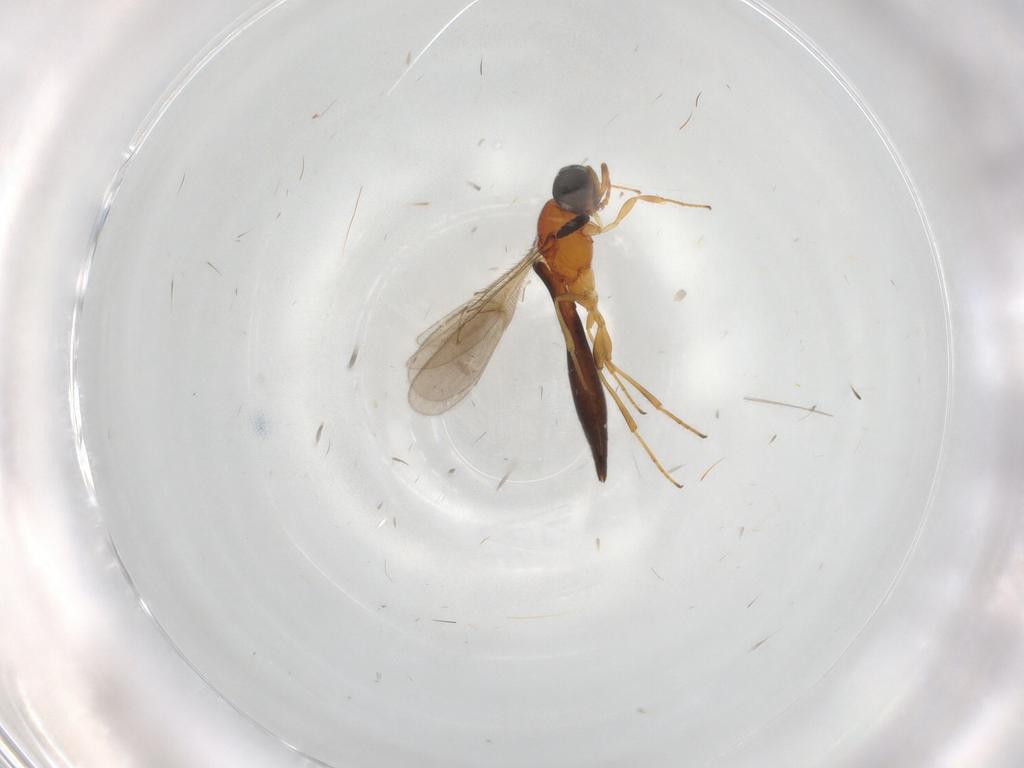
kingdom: Animalia
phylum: Arthropoda
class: Insecta
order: Hymenoptera
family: Scelionidae
